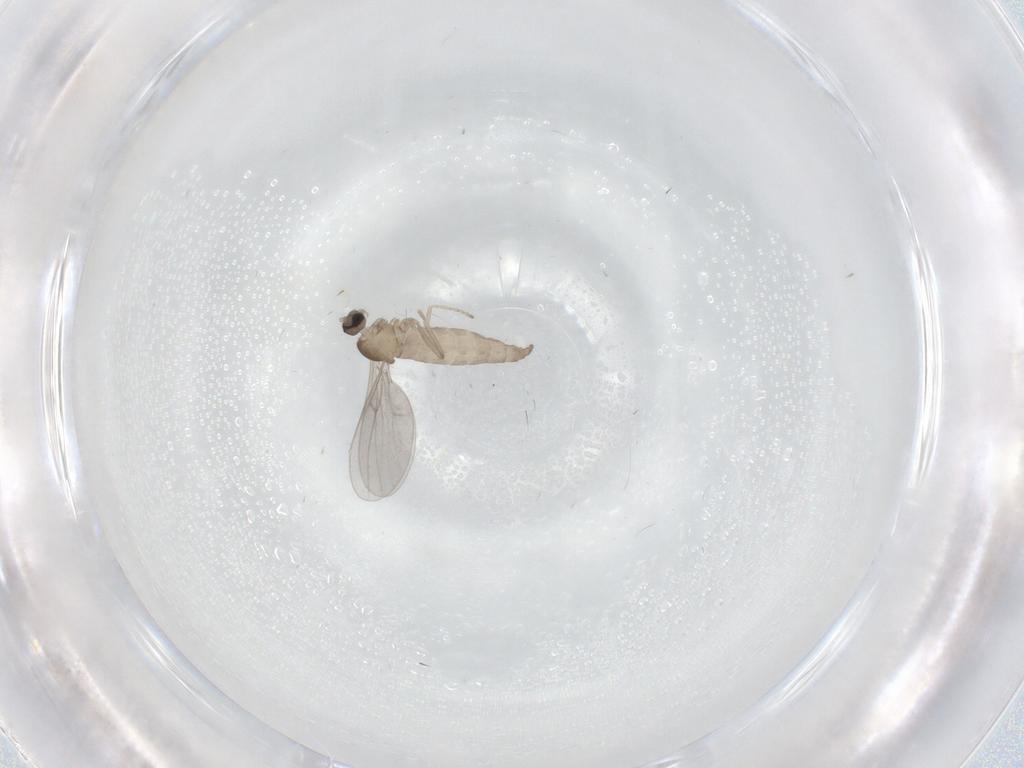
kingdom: Animalia
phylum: Arthropoda
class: Insecta
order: Diptera
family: Cecidomyiidae
